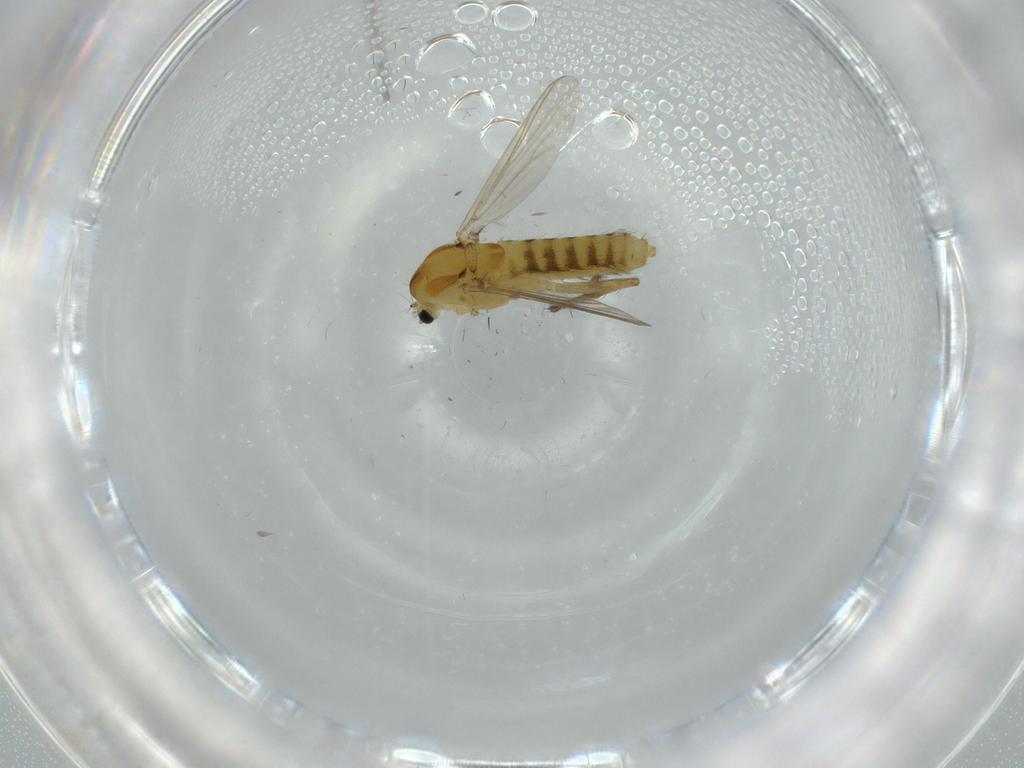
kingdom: Animalia
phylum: Arthropoda
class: Insecta
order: Diptera
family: Chironomidae
